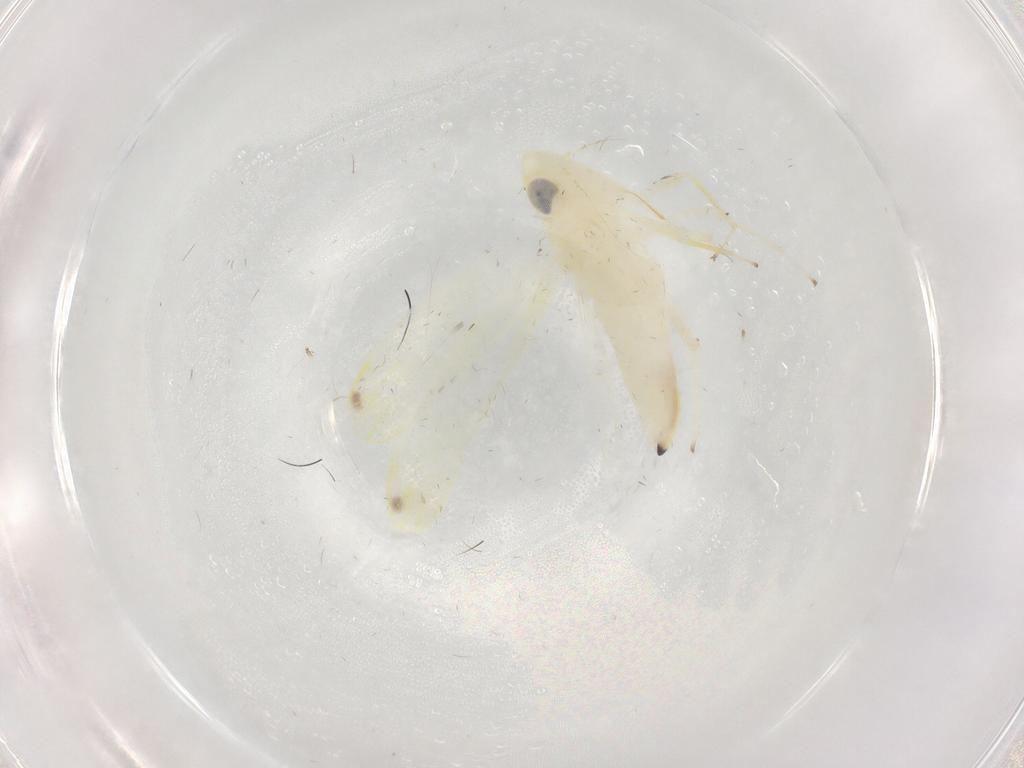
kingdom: Animalia
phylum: Arthropoda
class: Insecta
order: Hemiptera
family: Cicadellidae
